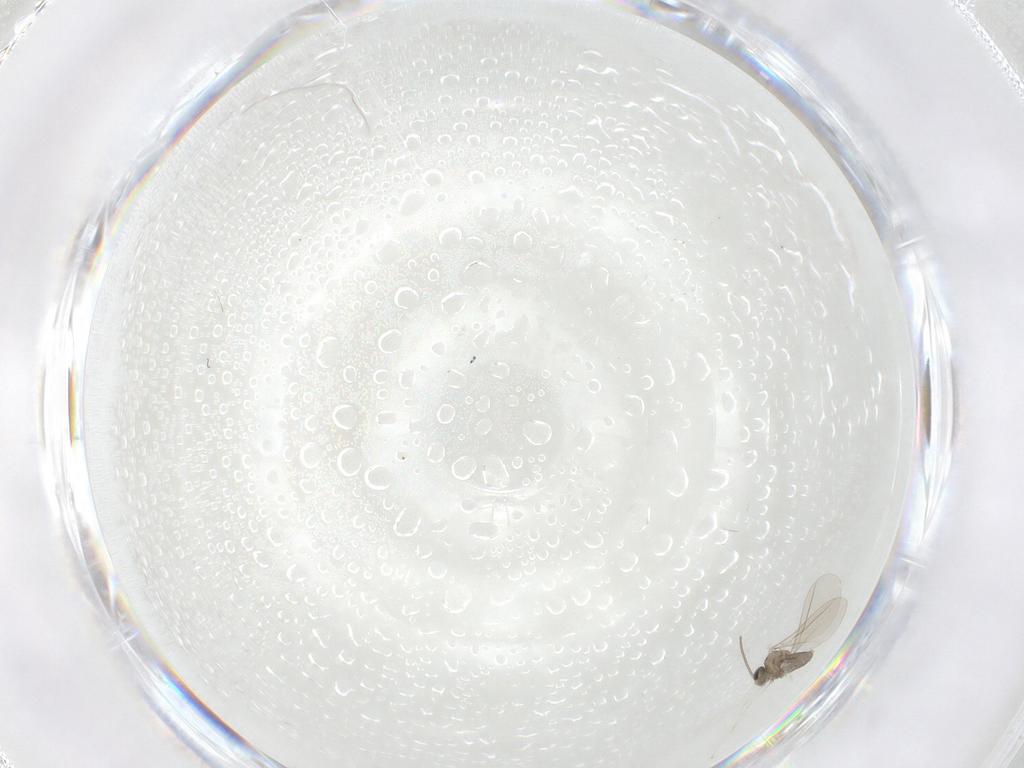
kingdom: Animalia
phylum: Arthropoda
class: Insecta
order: Diptera
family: Cecidomyiidae
